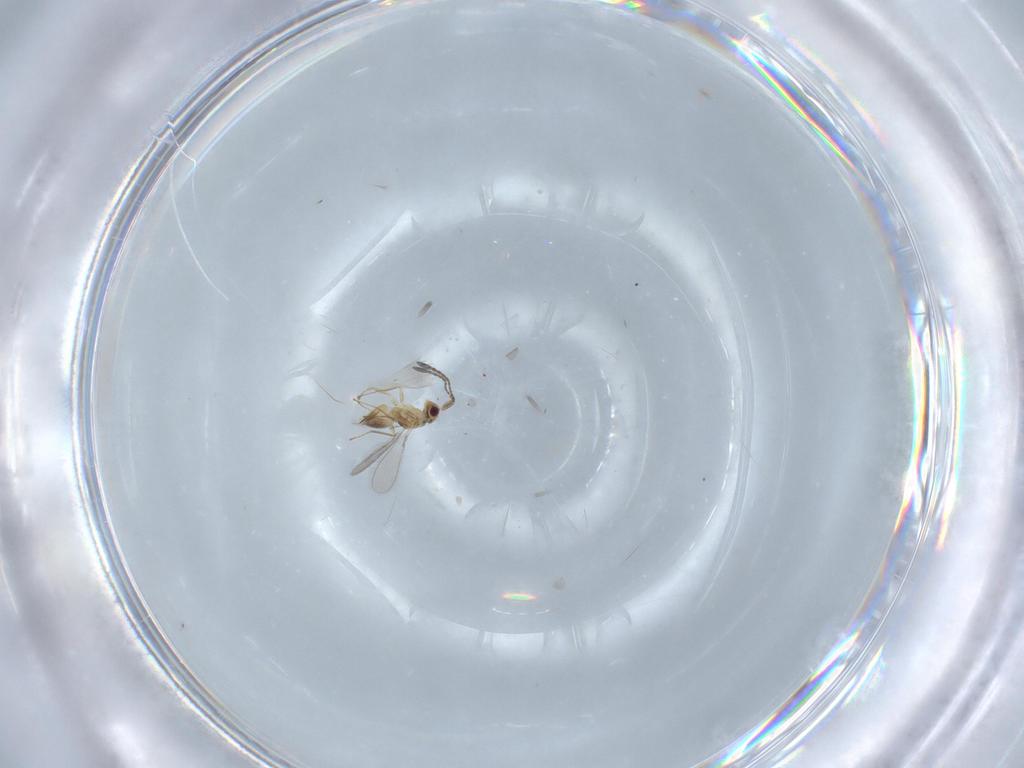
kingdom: Animalia
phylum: Arthropoda
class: Insecta
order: Hymenoptera
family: Mymaridae
